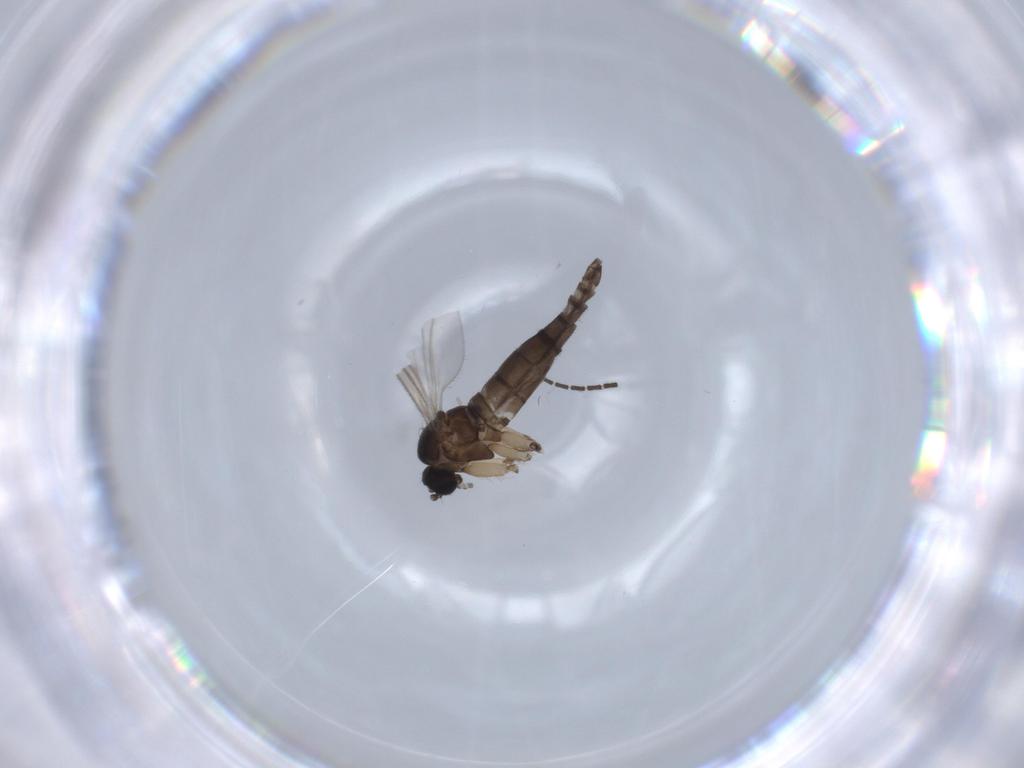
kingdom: Animalia
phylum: Arthropoda
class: Insecta
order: Diptera
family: Sciaridae
